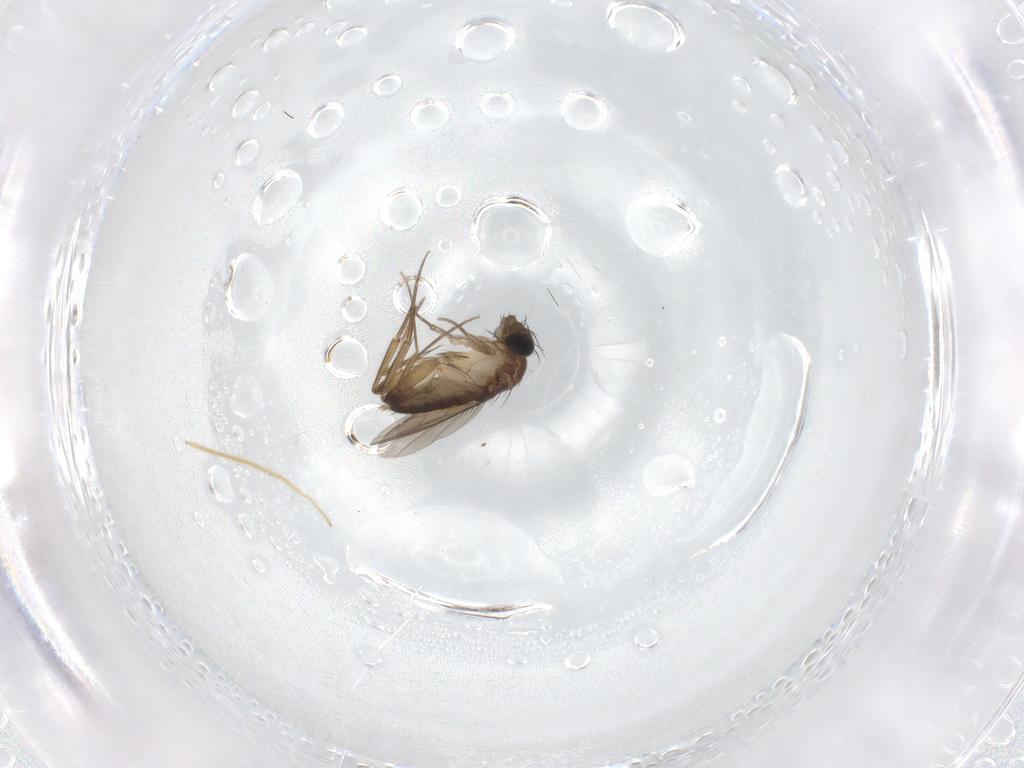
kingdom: Animalia
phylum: Arthropoda
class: Insecta
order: Diptera
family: Phoridae
